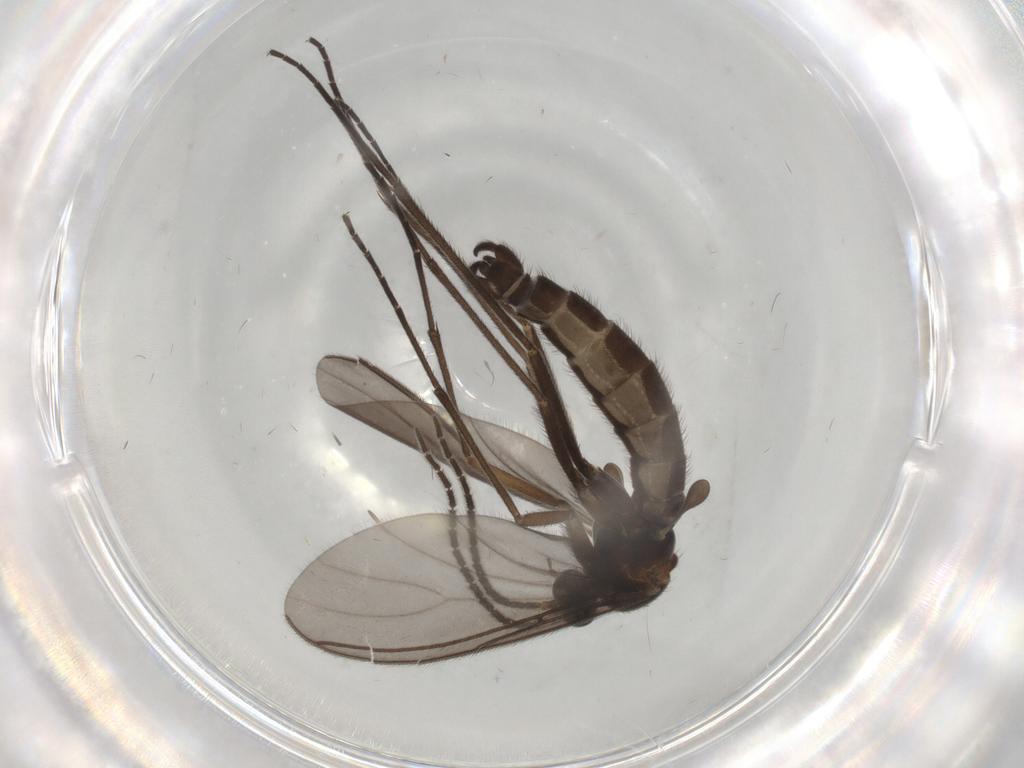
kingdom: Animalia
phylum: Arthropoda
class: Insecta
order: Diptera
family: Sciaridae
